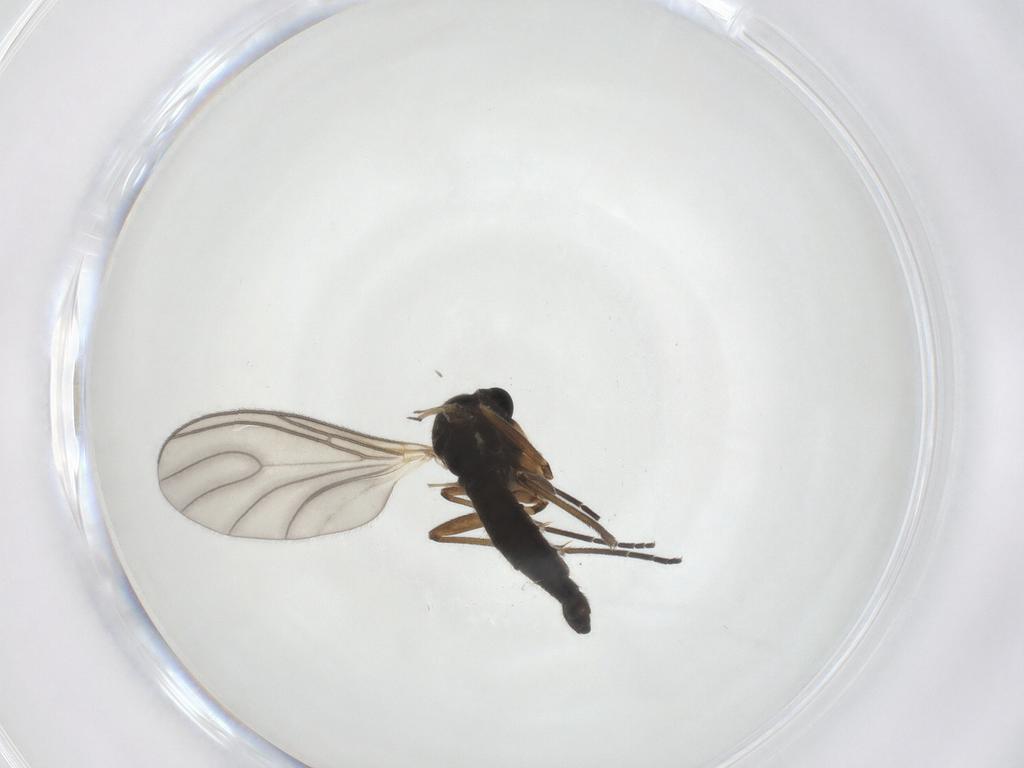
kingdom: Animalia
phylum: Arthropoda
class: Insecta
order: Diptera
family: Sciaridae
